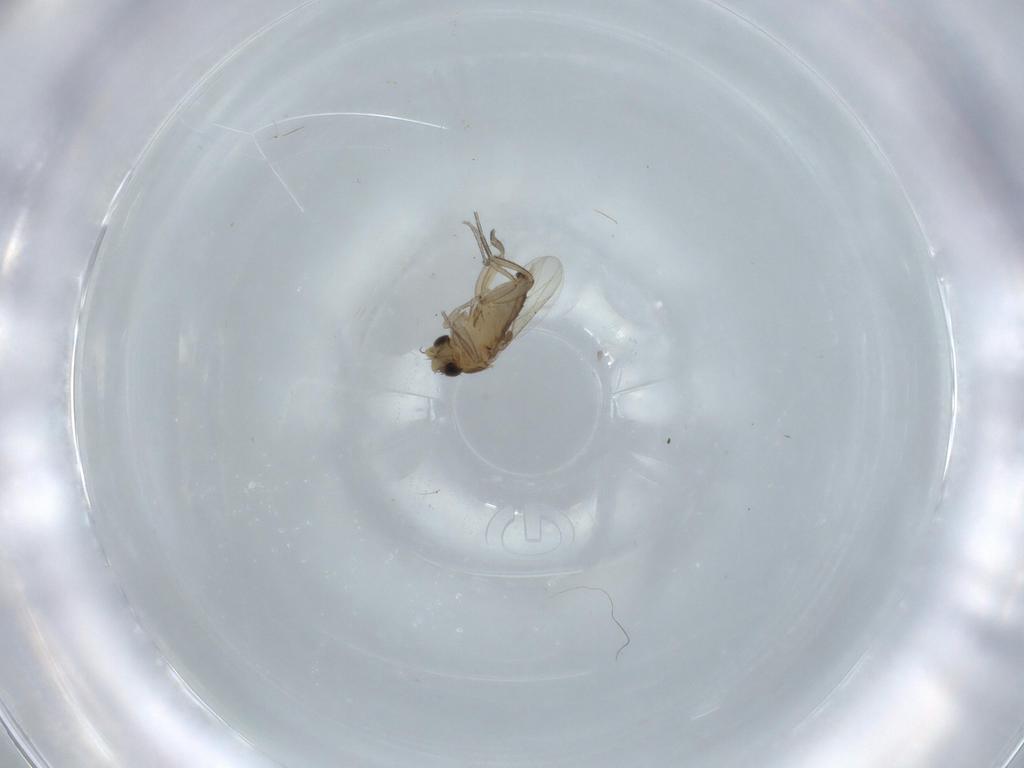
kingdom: Animalia
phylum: Arthropoda
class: Insecta
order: Diptera
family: Phoridae
